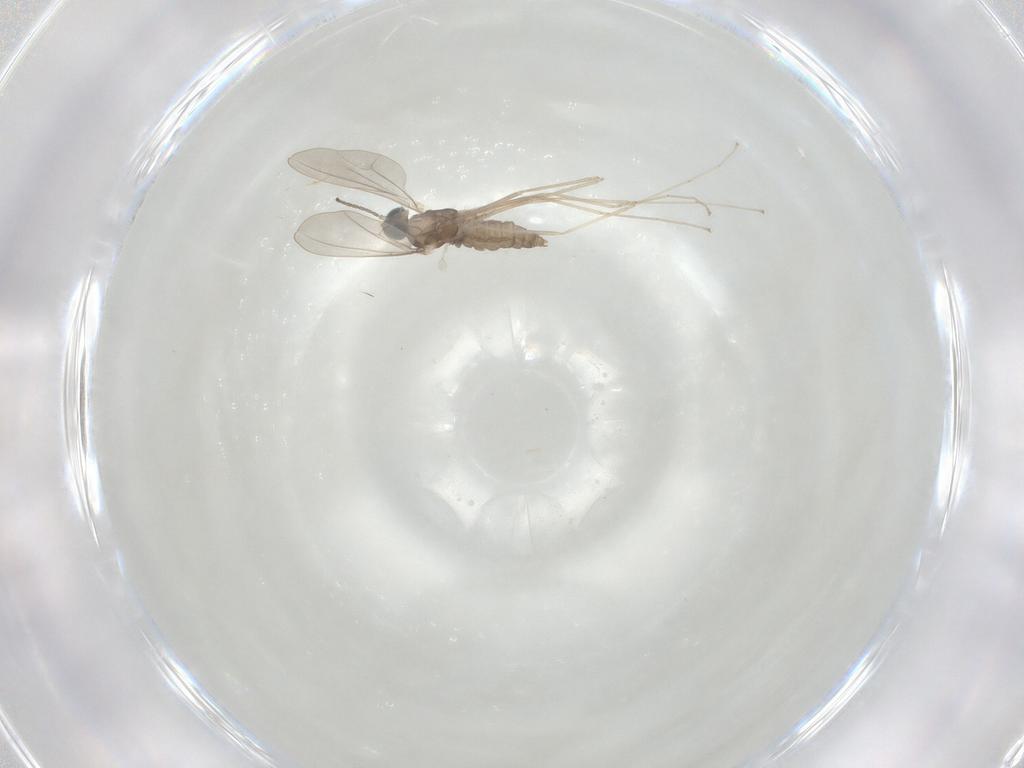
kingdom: Animalia
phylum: Arthropoda
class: Insecta
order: Diptera
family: Cecidomyiidae
